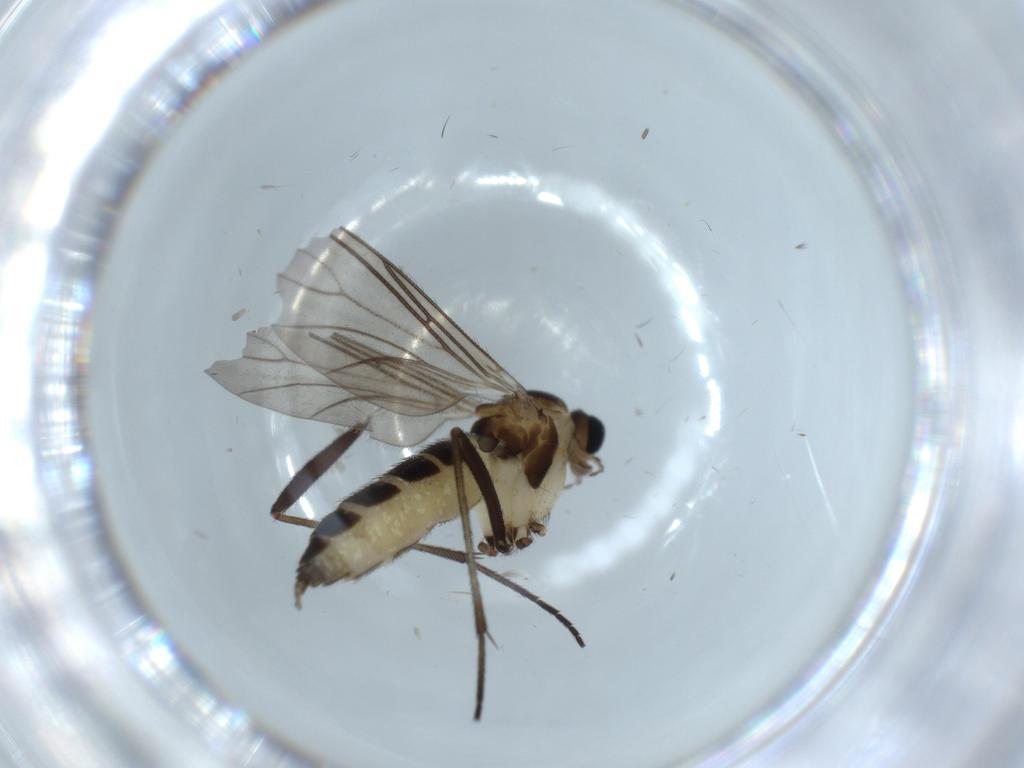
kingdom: Animalia
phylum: Arthropoda
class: Insecta
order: Diptera
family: Sciaridae
